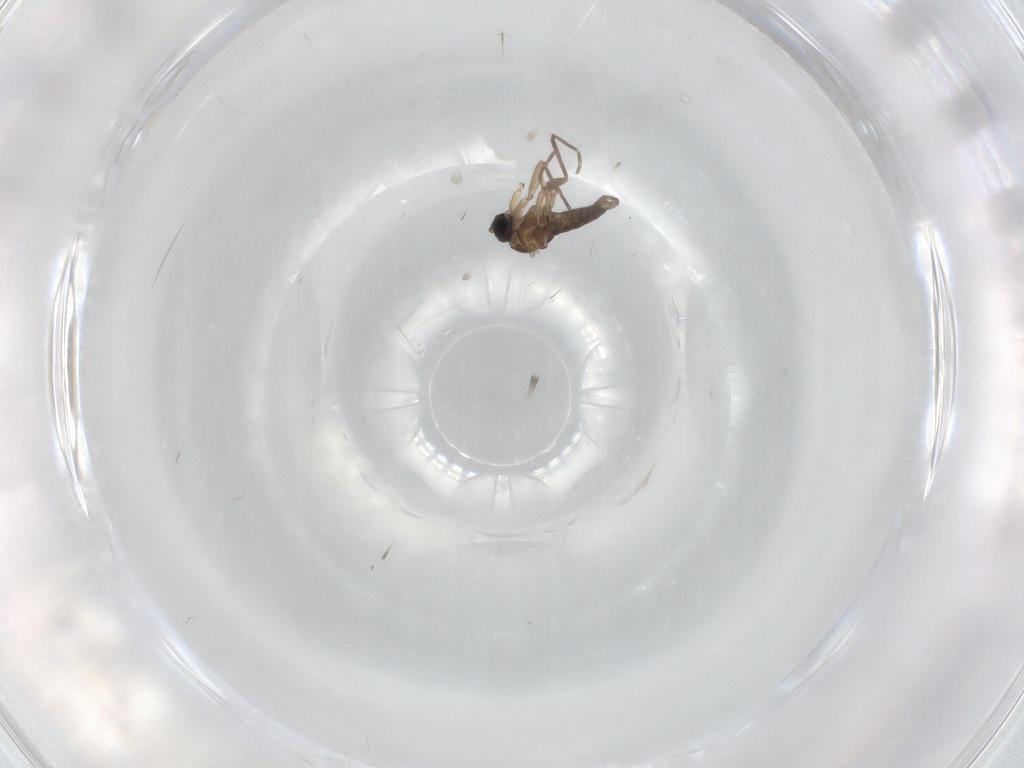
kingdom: Animalia
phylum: Arthropoda
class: Insecta
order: Diptera
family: Sciaridae
